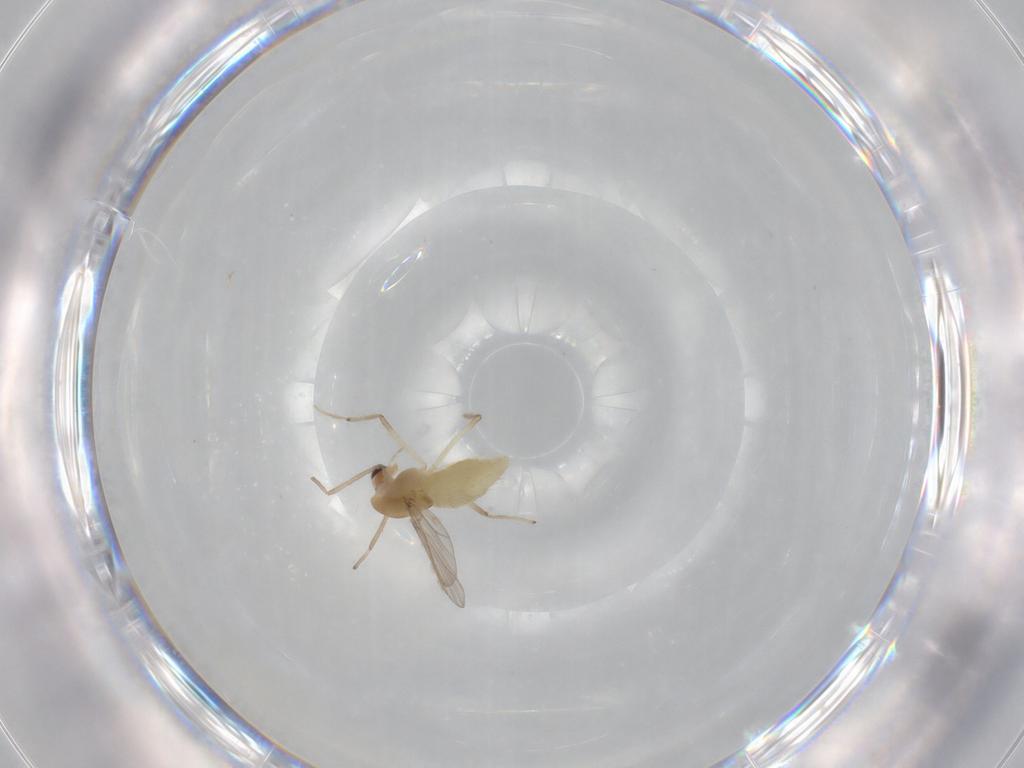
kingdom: Animalia
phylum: Arthropoda
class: Insecta
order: Diptera
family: Chironomidae
